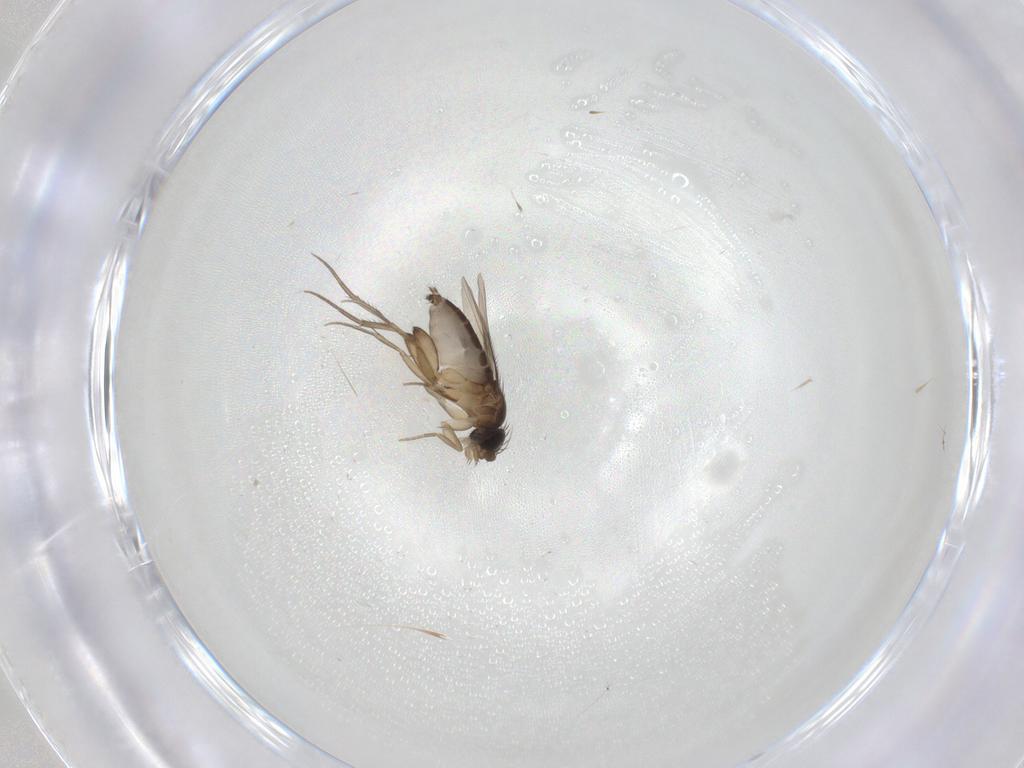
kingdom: Animalia
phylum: Arthropoda
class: Insecta
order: Diptera
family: Phoridae
